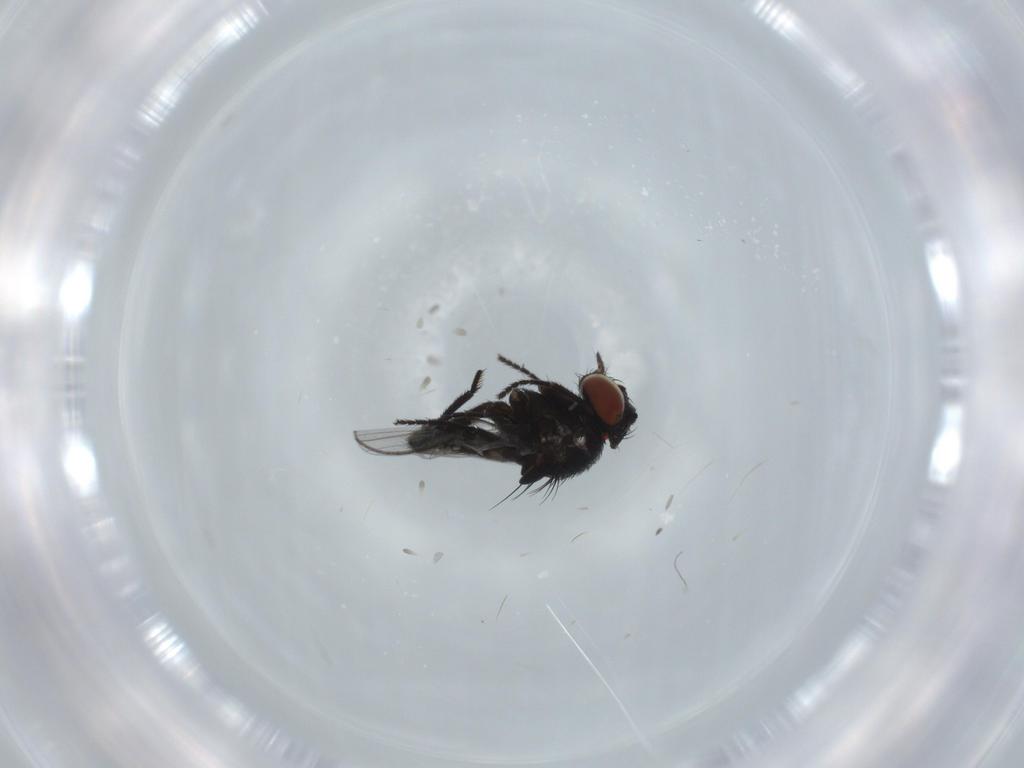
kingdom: Animalia
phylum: Arthropoda
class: Insecta
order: Diptera
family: Milichiidae
